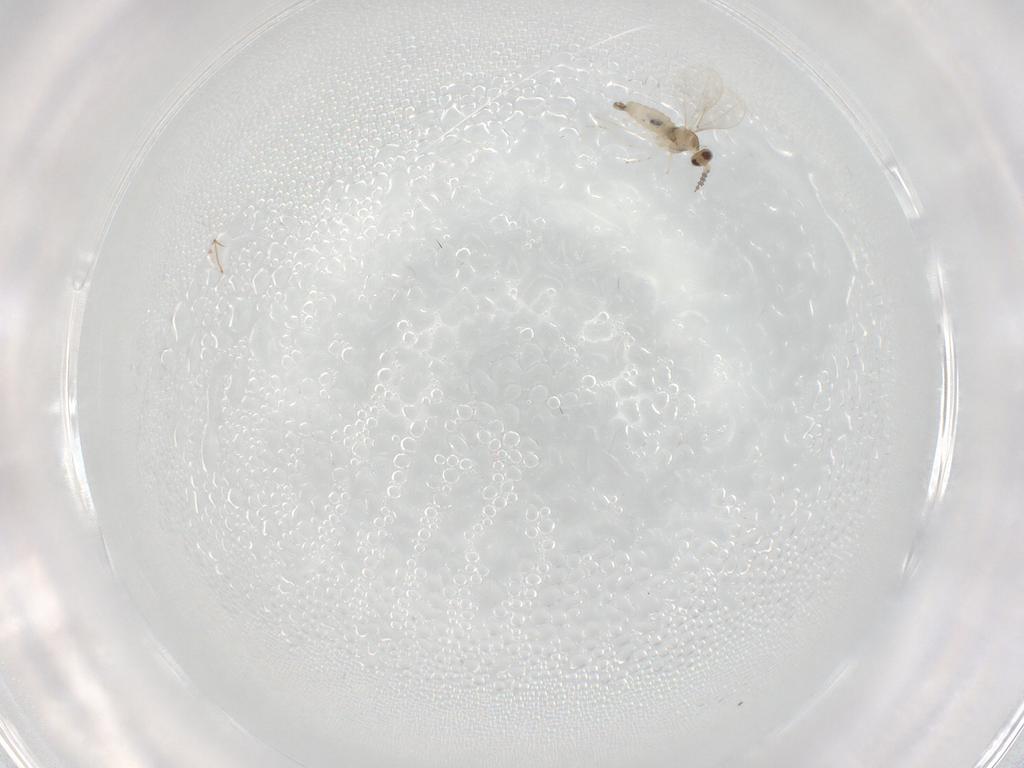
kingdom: Animalia
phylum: Arthropoda
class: Insecta
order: Diptera
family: Cecidomyiidae
